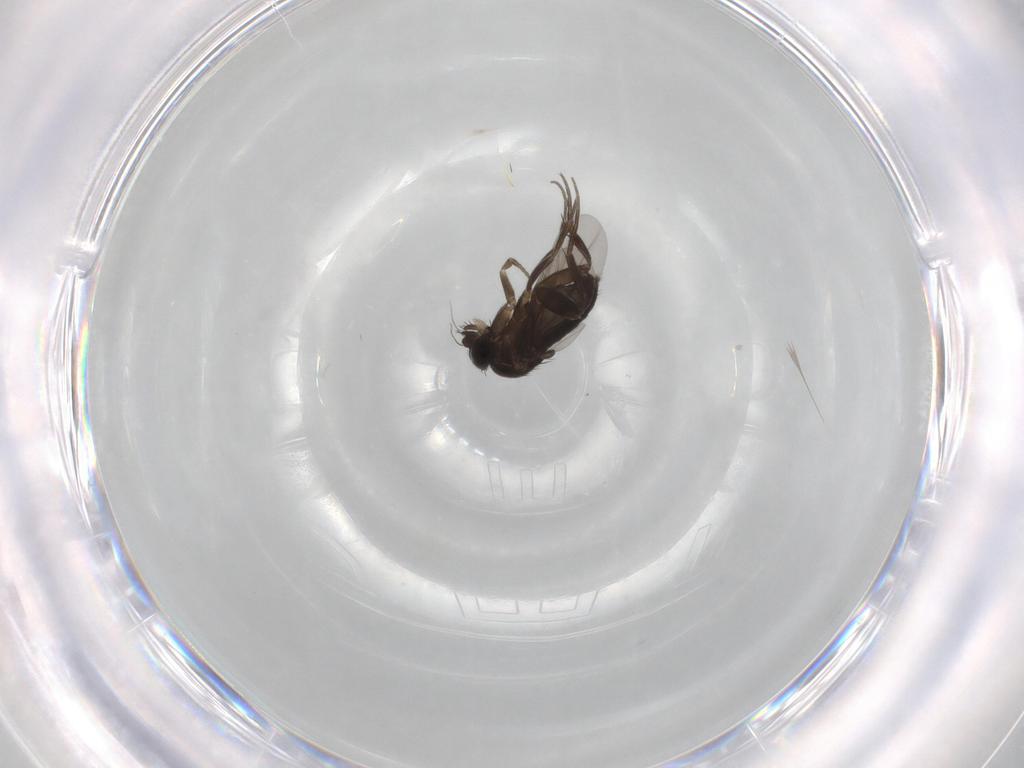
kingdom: Animalia
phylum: Arthropoda
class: Insecta
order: Diptera
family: Phoridae
